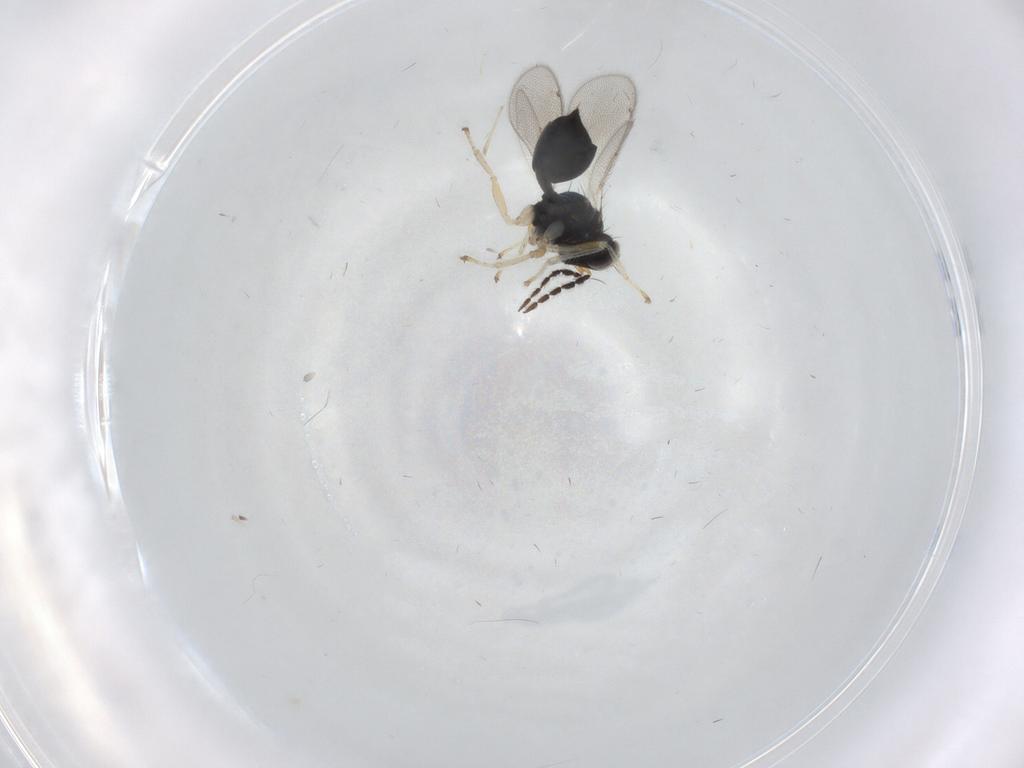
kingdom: Animalia
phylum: Arthropoda
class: Insecta
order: Hymenoptera
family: Eulophidae
